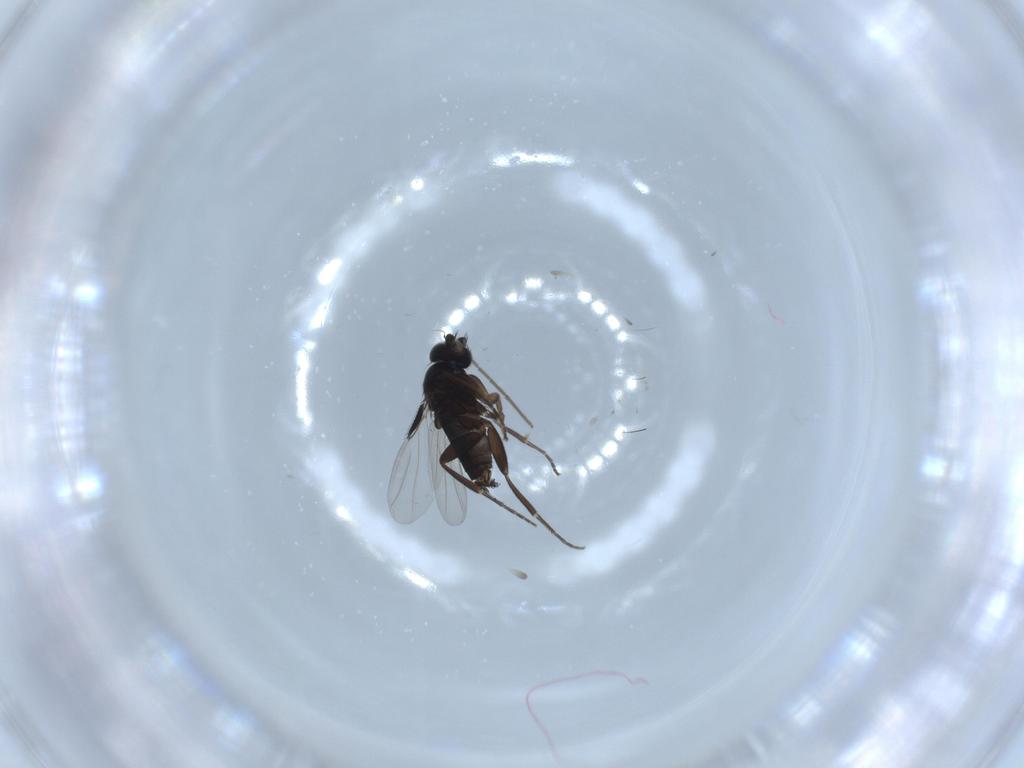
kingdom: Animalia
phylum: Arthropoda
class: Insecta
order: Diptera
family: Phoridae
